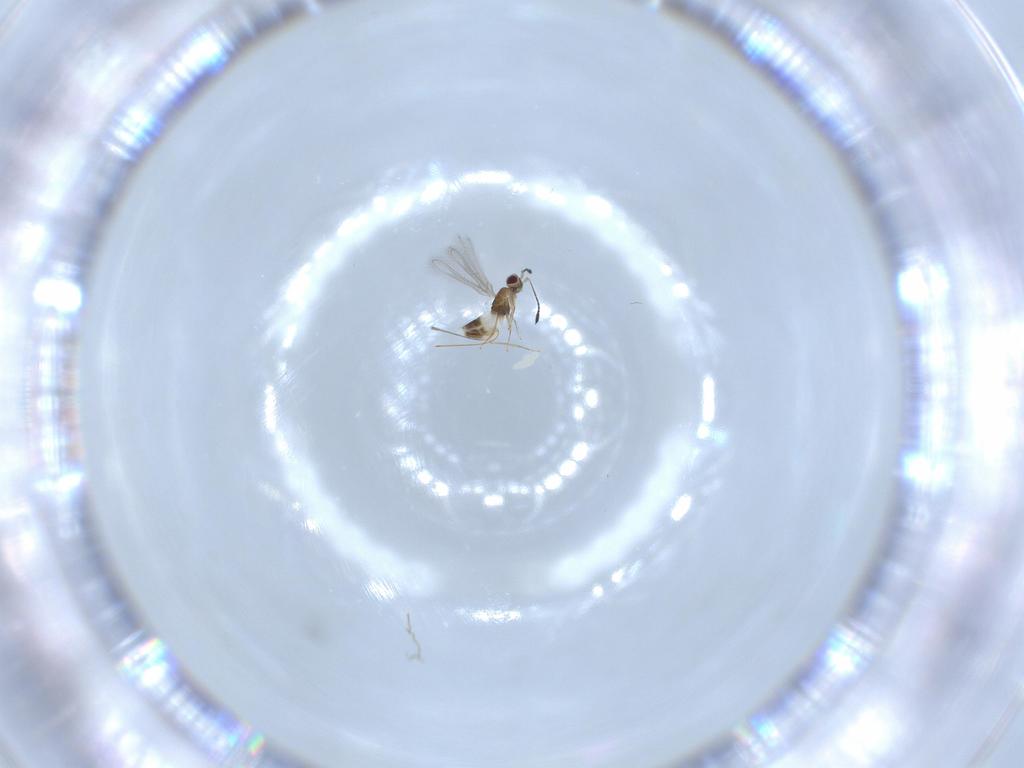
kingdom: Animalia
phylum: Arthropoda
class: Insecta
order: Hymenoptera
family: Mymaridae
